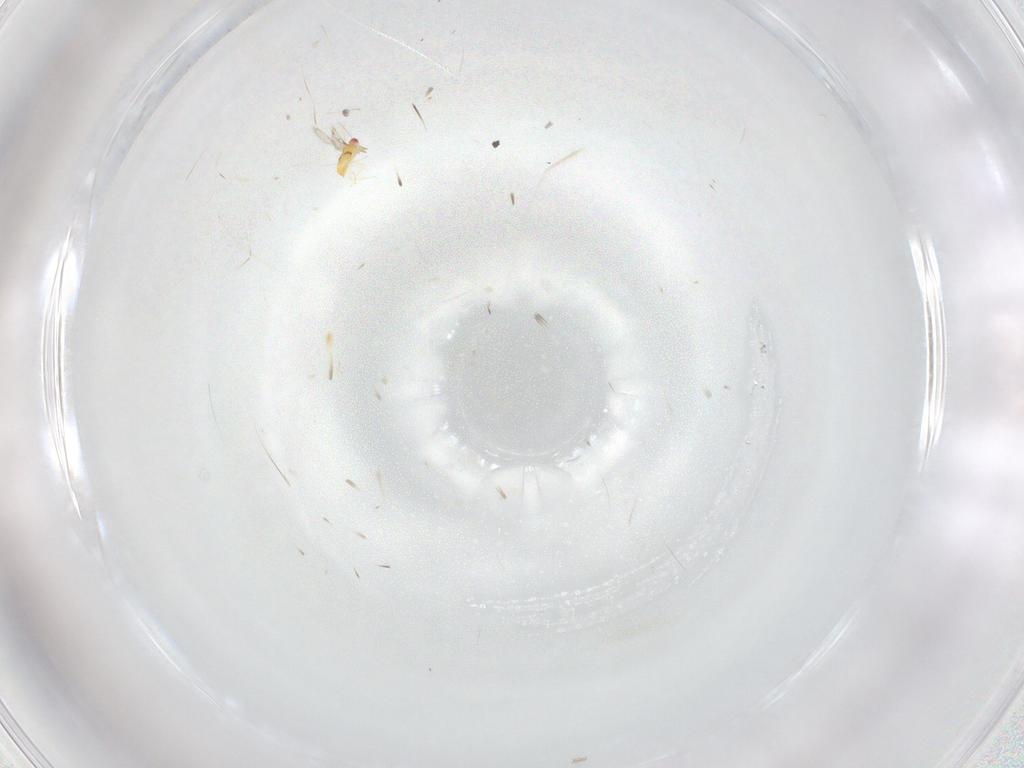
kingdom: Animalia
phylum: Arthropoda
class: Insecta
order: Hymenoptera
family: Trichogrammatidae
